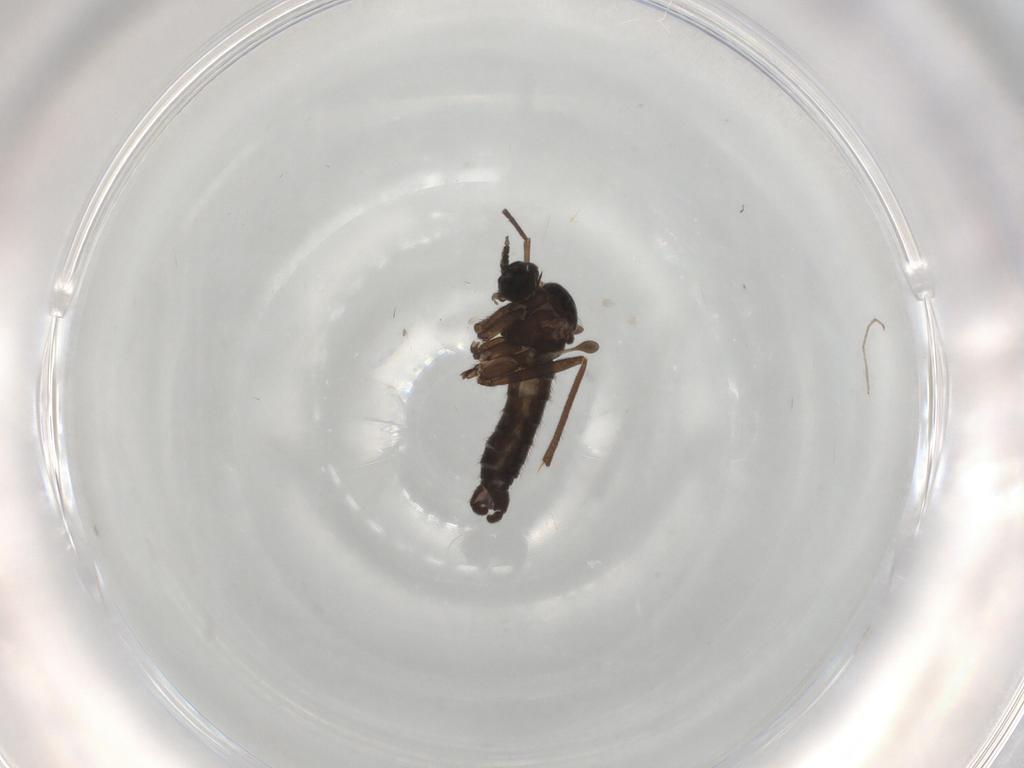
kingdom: Animalia
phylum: Arthropoda
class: Insecta
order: Diptera
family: Sciaridae
